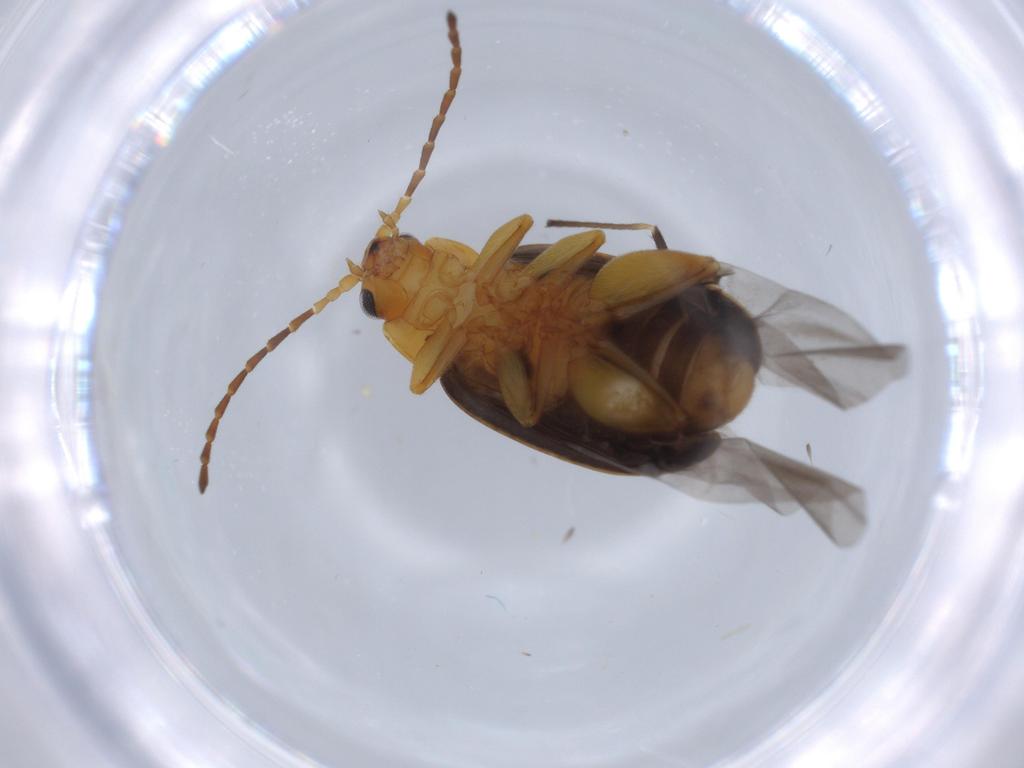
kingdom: Animalia
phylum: Arthropoda
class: Insecta
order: Coleoptera
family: Chrysomelidae
